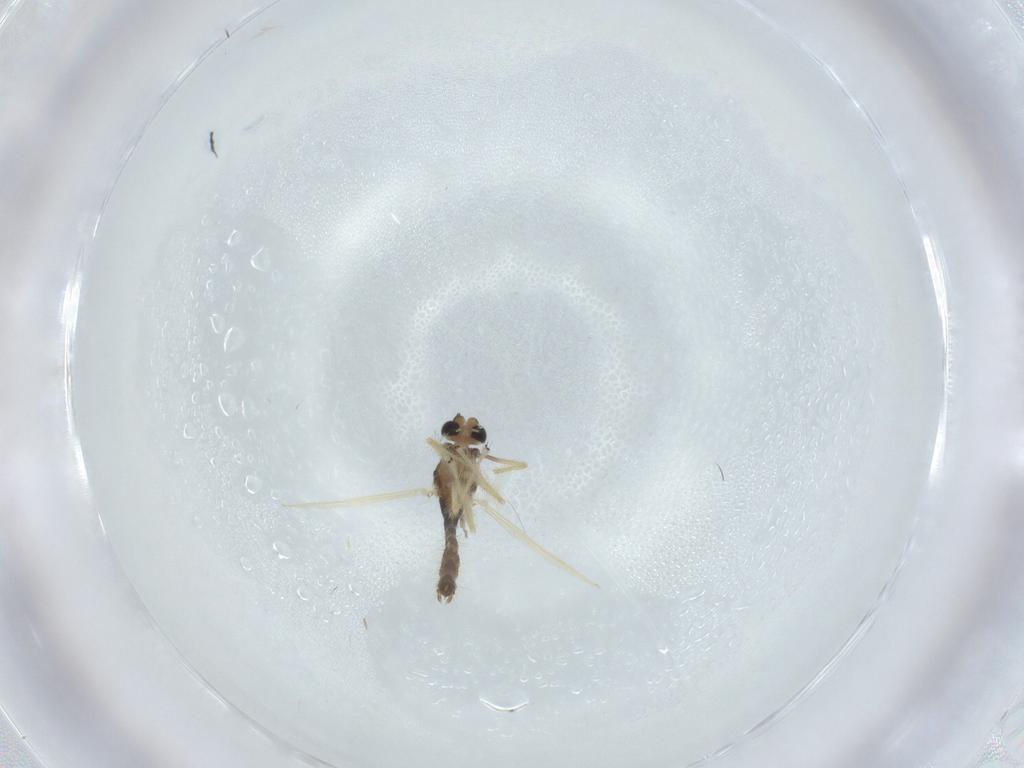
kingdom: Animalia
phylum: Arthropoda
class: Insecta
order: Diptera
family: Chironomidae
